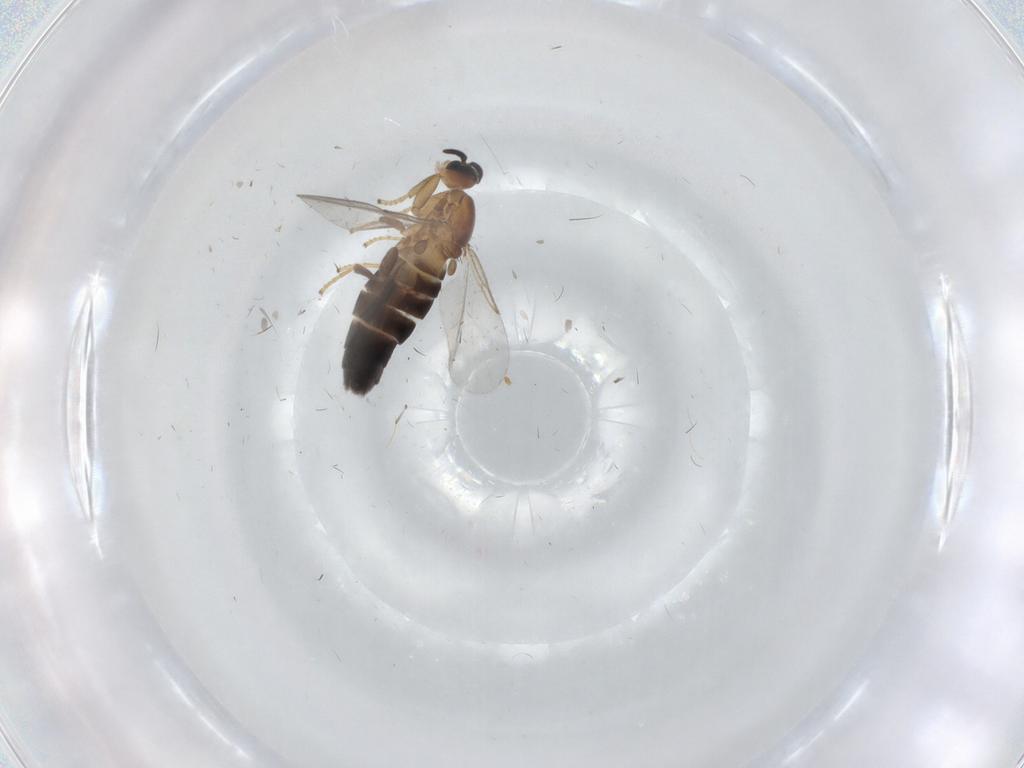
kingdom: Animalia
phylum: Arthropoda
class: Insecta
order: Diptera
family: Scatopsidae
